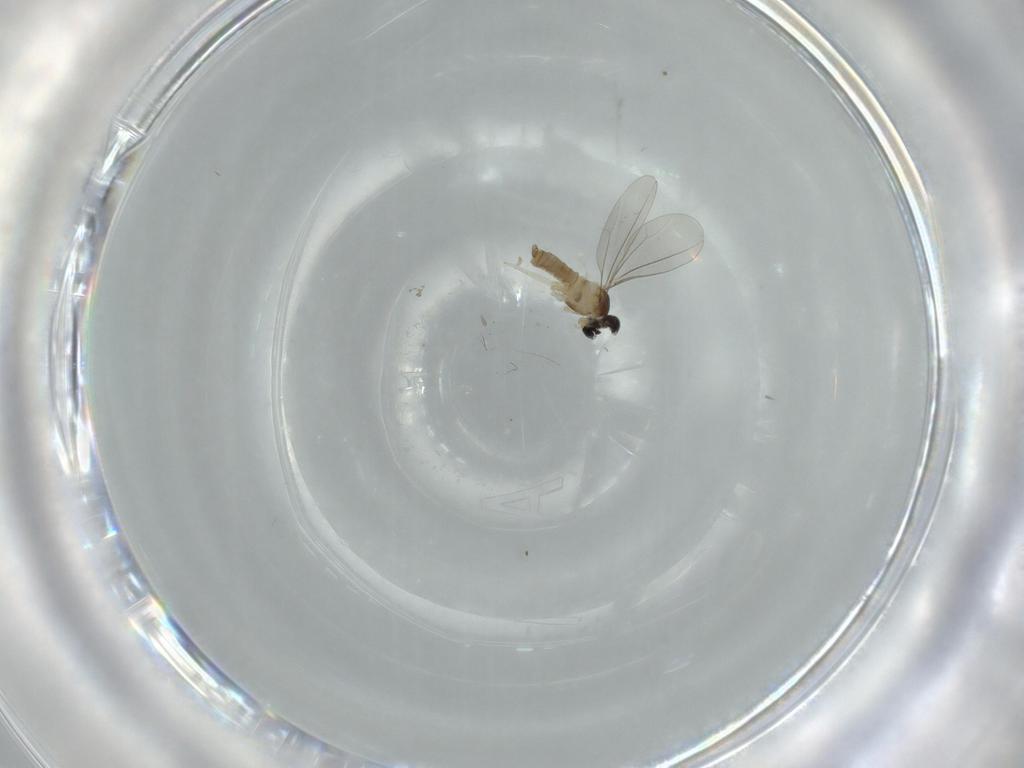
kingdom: Animalia
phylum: Arthropoda
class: Insecta
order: Diptera
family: Cecidomyiidae
